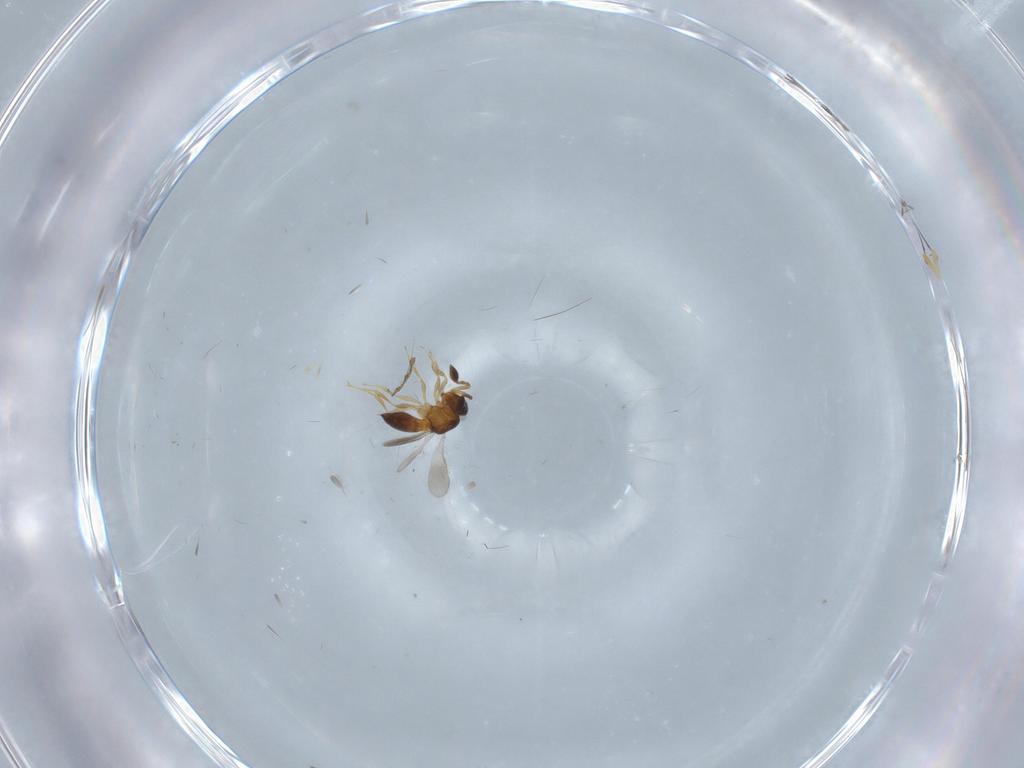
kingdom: Animalia
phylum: Arthropoda
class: Insecta
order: Hymenoptera
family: Scelionidae
